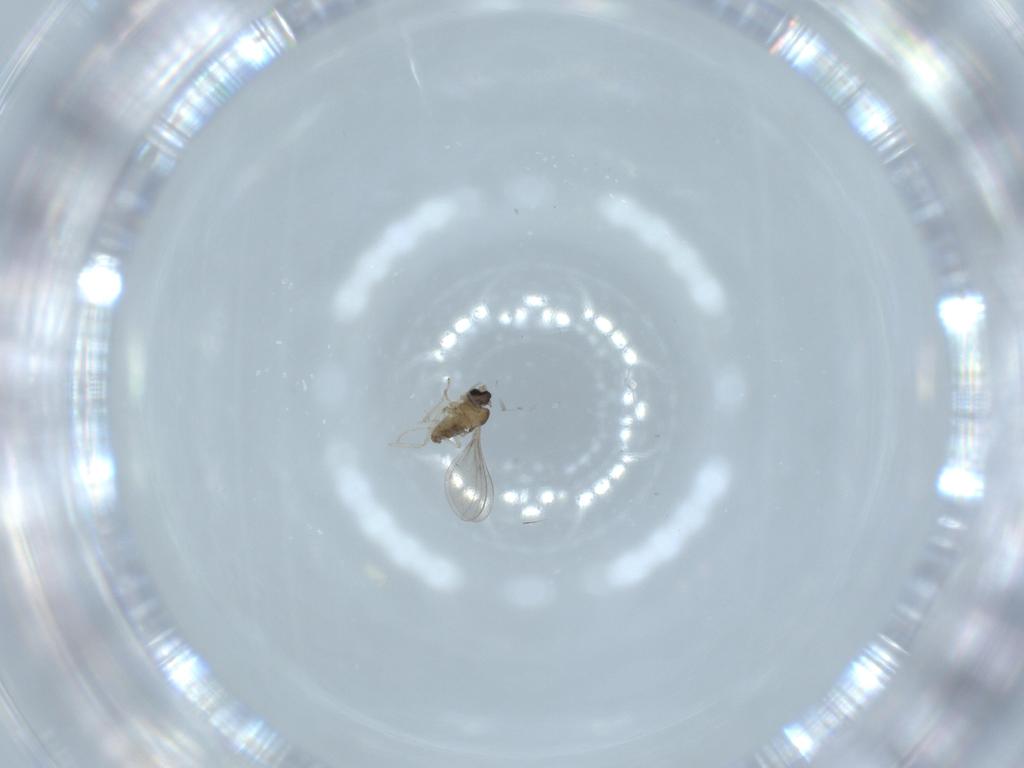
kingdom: Animalia
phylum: Arthropoda
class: Insecta
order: Diptera
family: Cecidomyiidae
